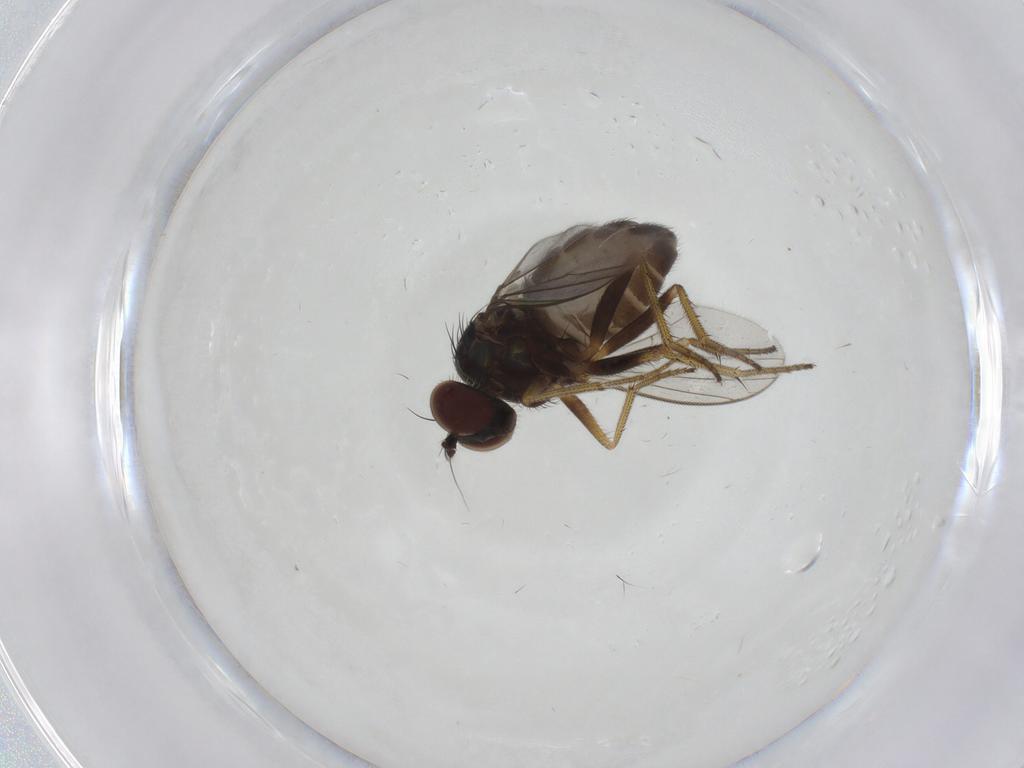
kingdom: Animalia
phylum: Arthropoda
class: Insecta
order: Diptera
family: Dolichopodidae
